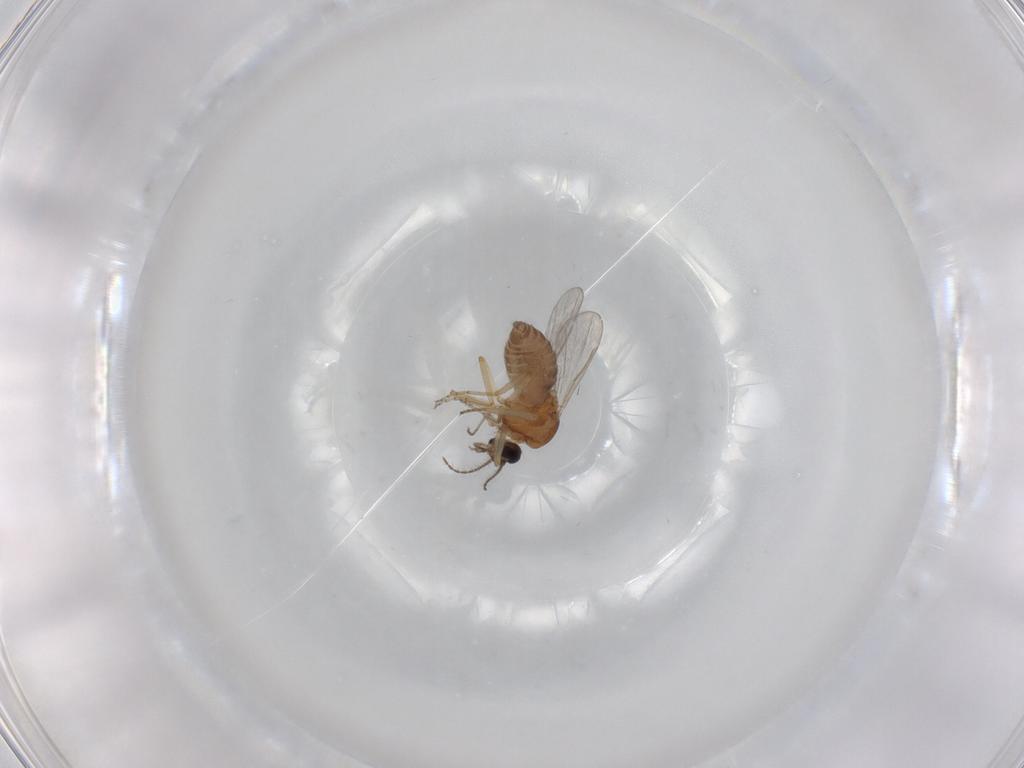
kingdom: Animalia
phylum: Arthropoda
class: Insecta
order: Diptera
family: Ceratopogonidae
